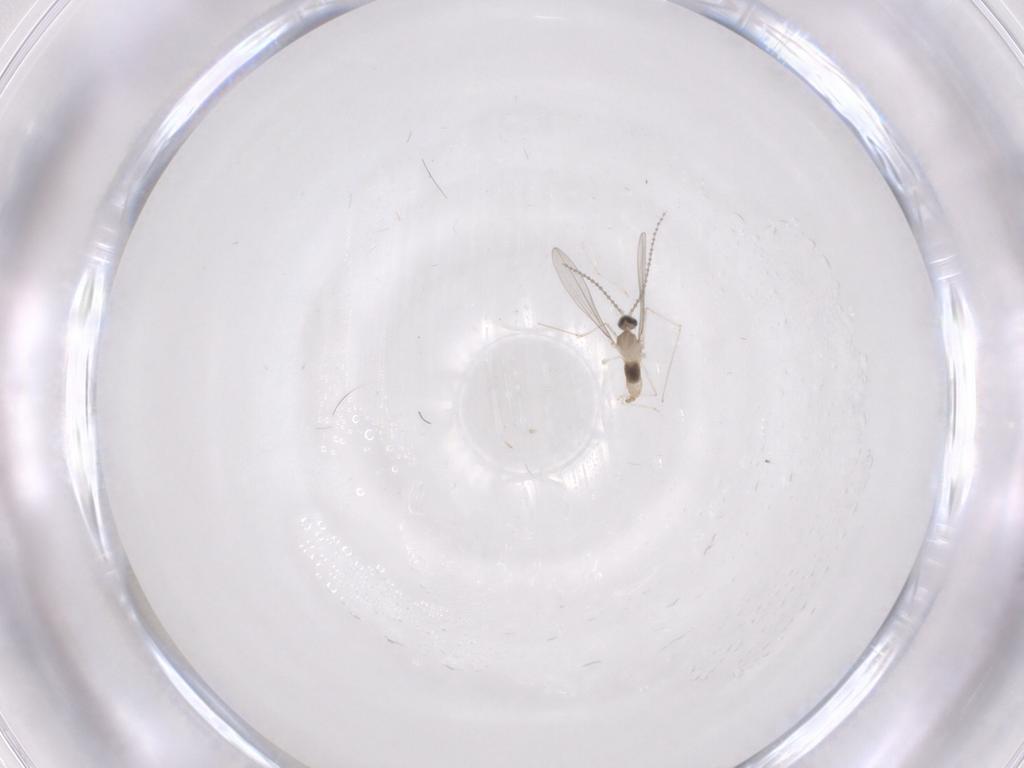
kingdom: Animalia
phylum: Arthropoda
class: Insecta
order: Diptera
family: Cecidomyiidae
